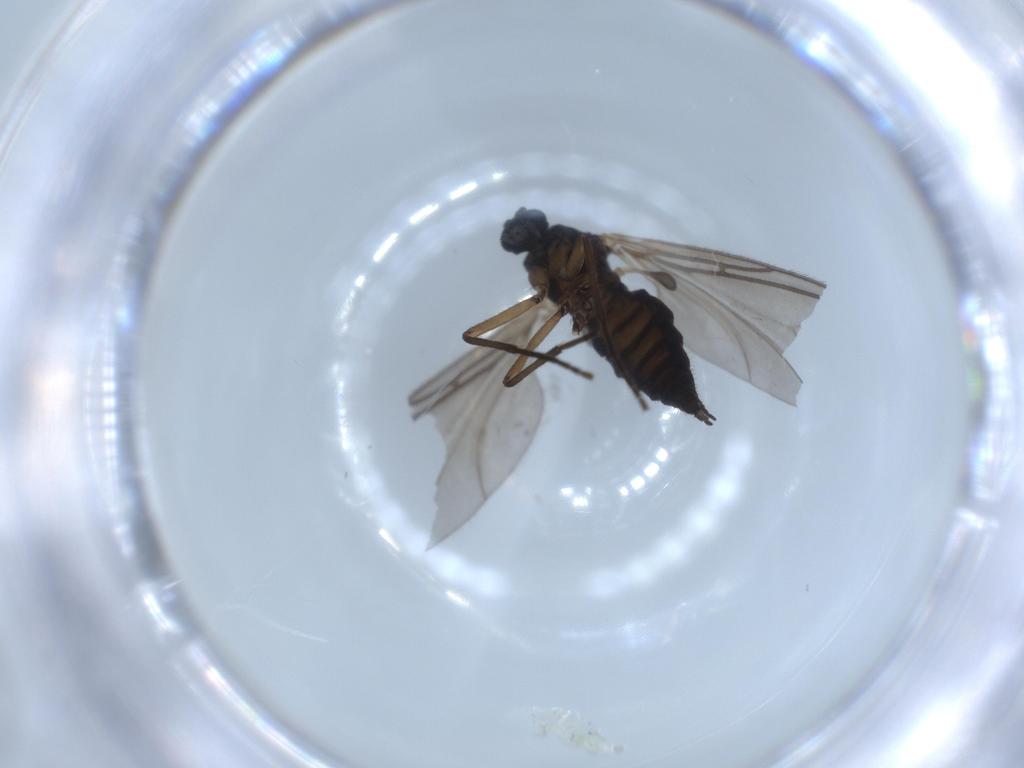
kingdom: Animalia
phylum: Arthropoda
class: Insecta
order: Diptera
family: Sciaridae
